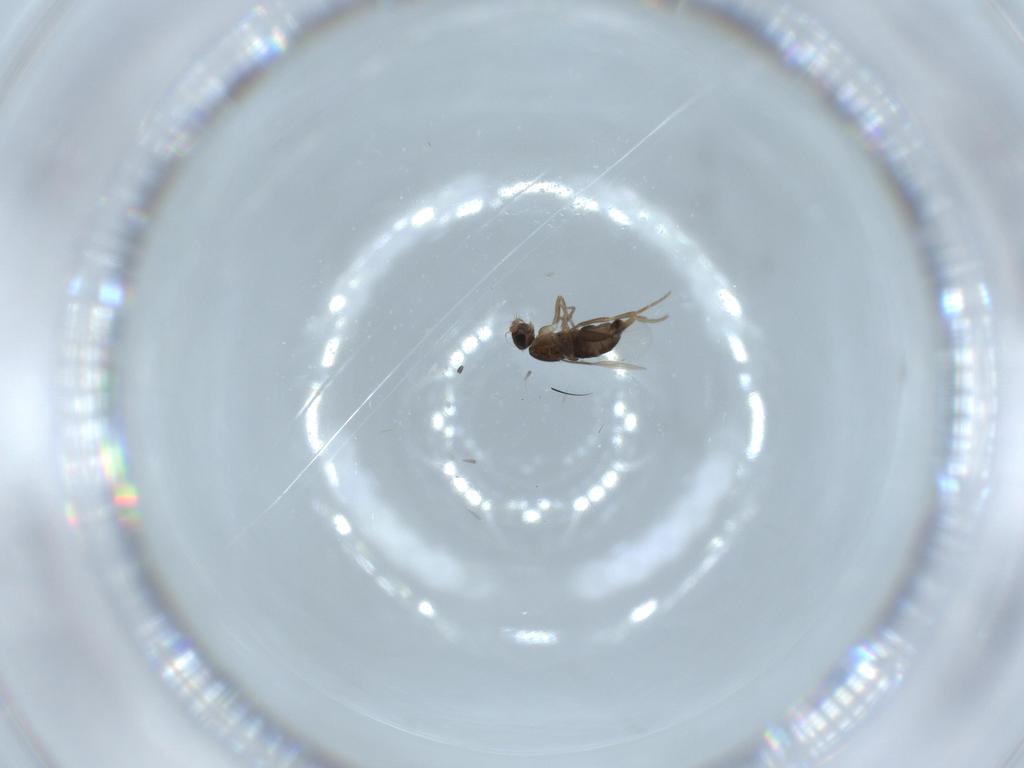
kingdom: Animalia
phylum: Arthropoda
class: Insecta
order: Diptera
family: Phoridae
